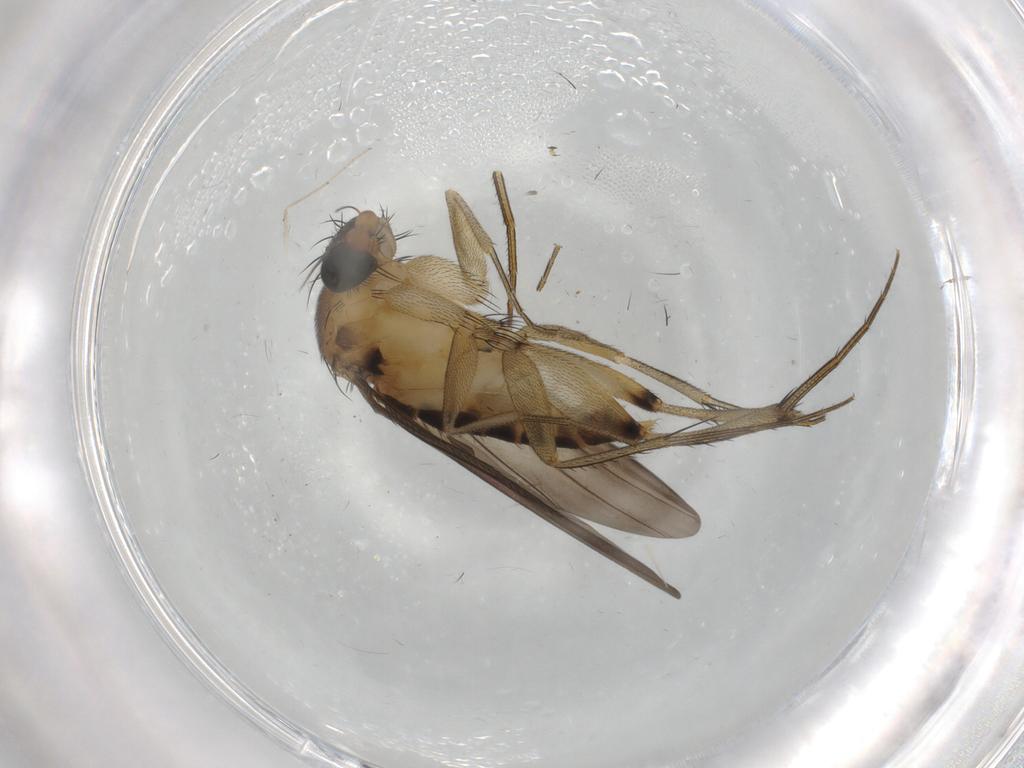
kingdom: Animalia
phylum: Arthropoda
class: Insecta
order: Diptera
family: Phoridae
